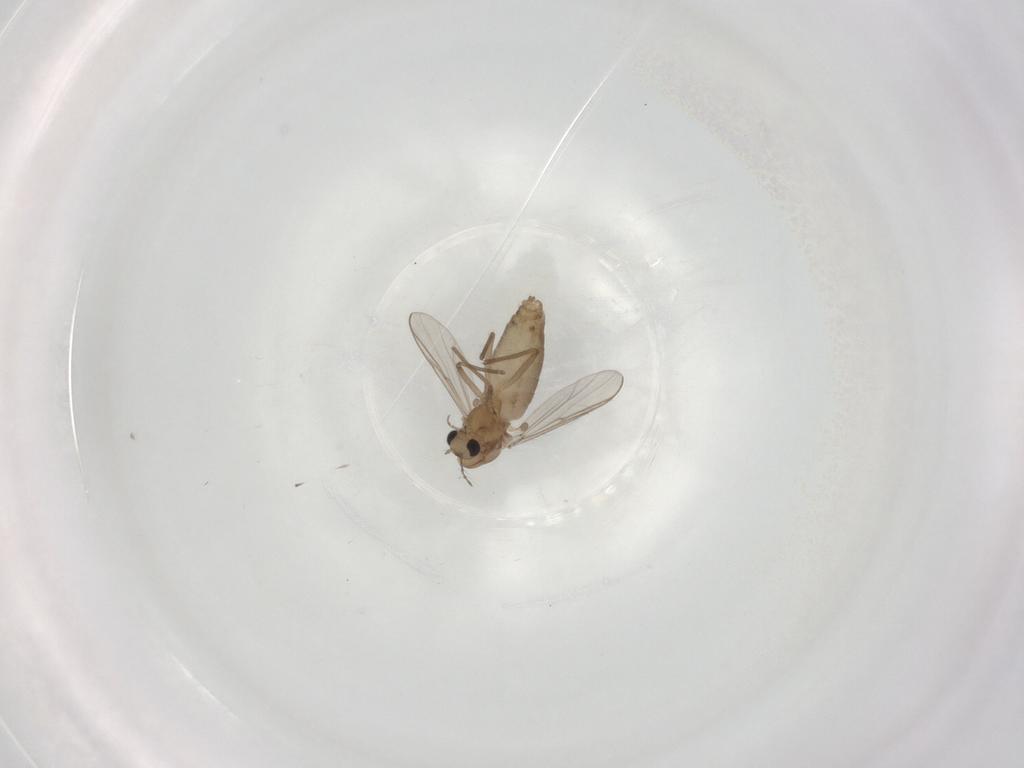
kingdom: Animalia
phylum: Arthropoda
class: Insecta
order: Diptera
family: Chironomidae
